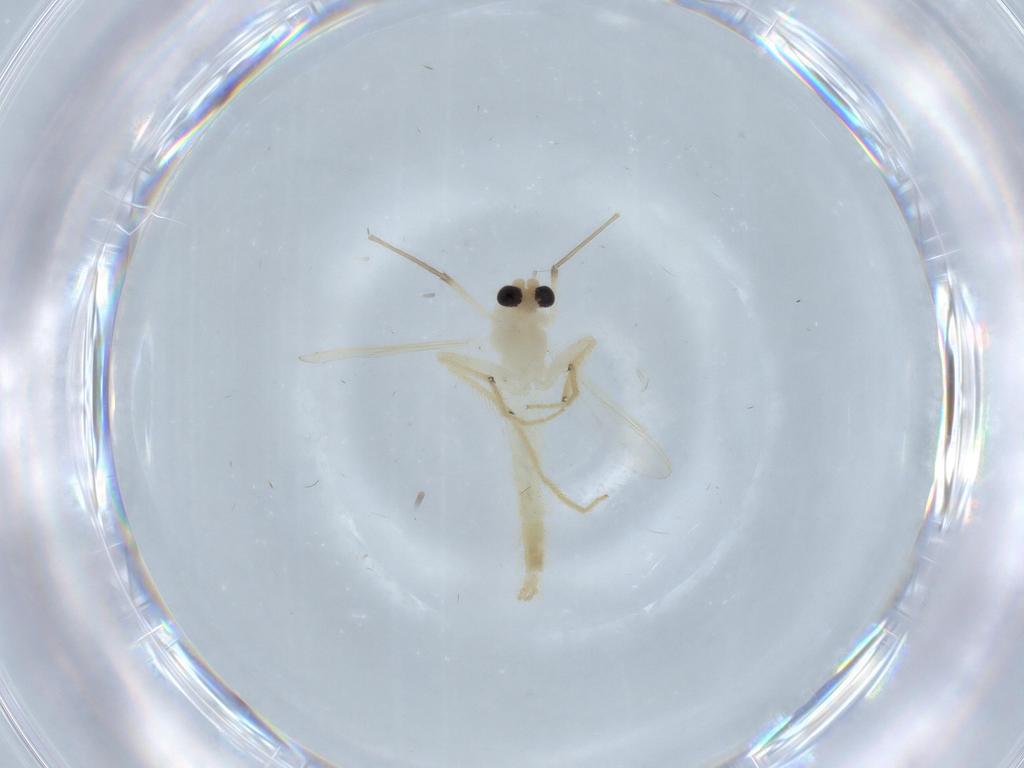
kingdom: Animalia
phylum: Arthropoda
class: Insecta
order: Diptera
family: Chironomidae
